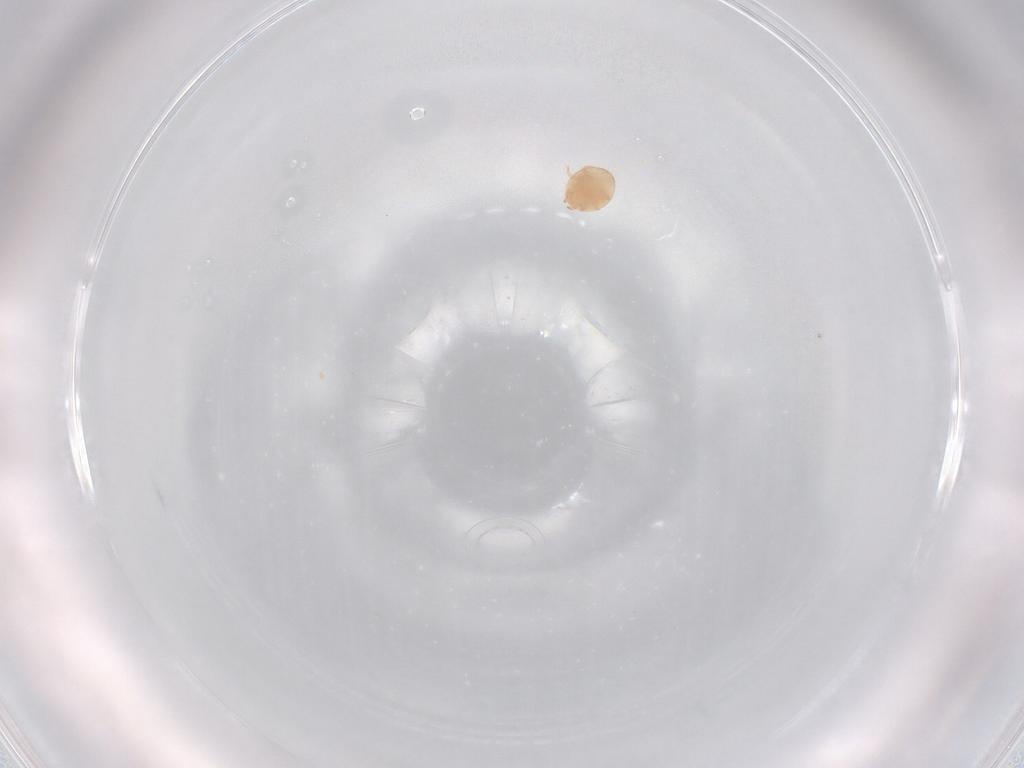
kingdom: Animalia
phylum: Arthropoda
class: Arachnida
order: Mesostigmata
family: Trematuridae
